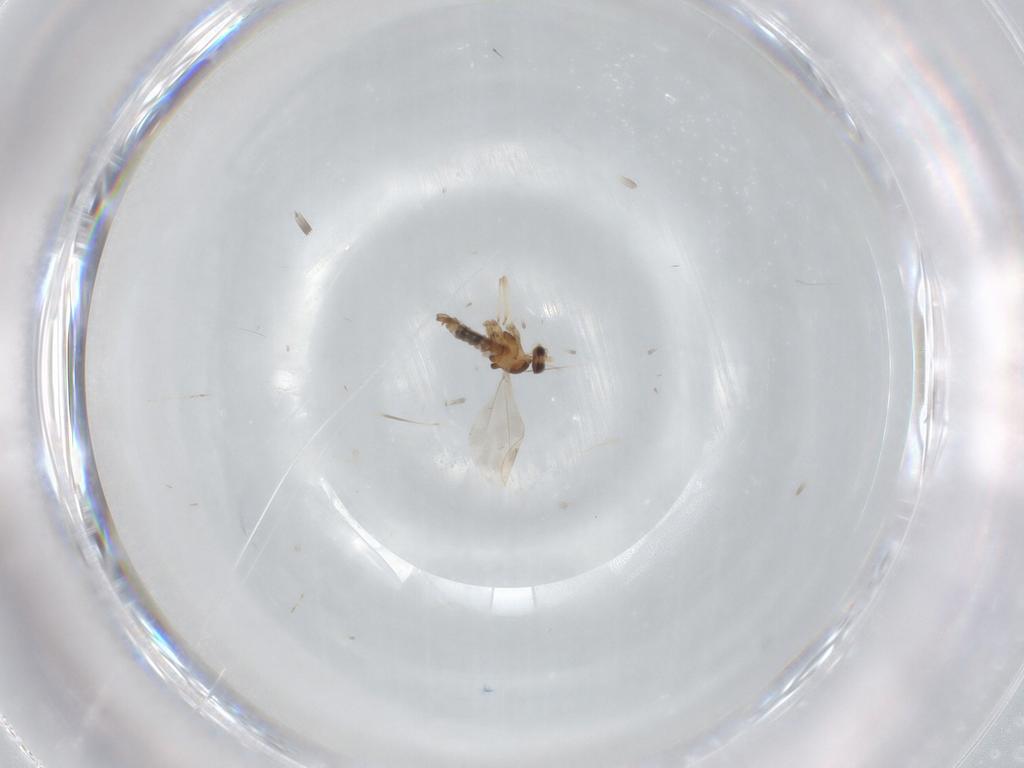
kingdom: Animalia
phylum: Arthropoda
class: Insecta
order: Diptera
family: Cecidomyiidae
